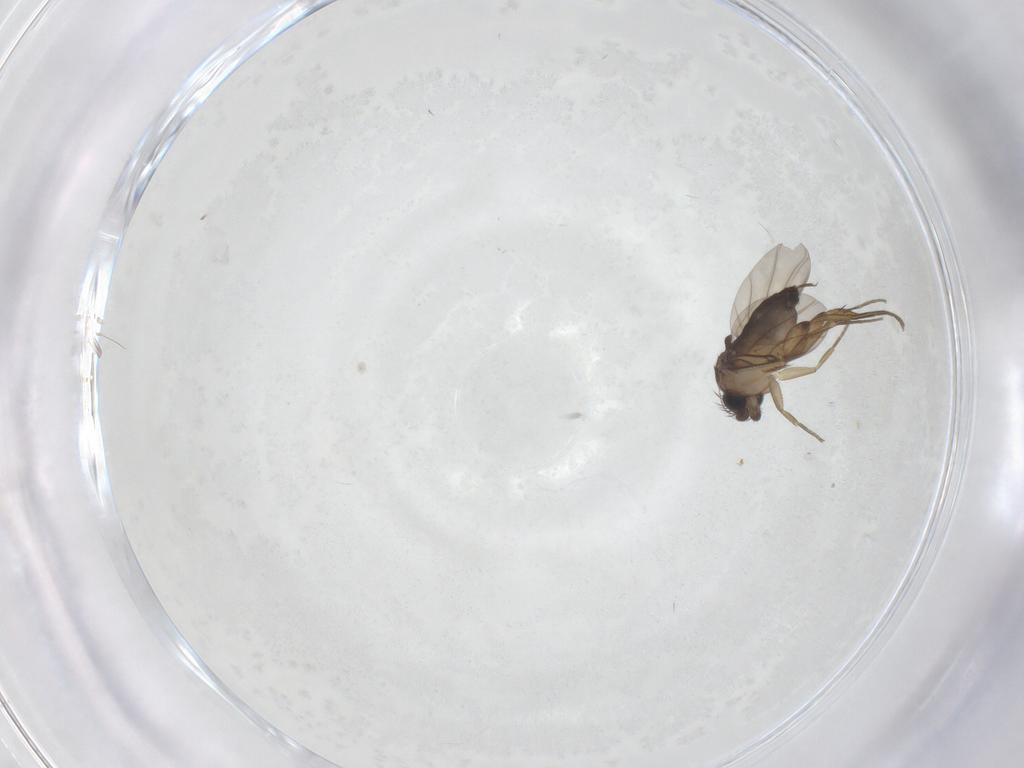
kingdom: Animalia
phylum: Arthropoda
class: Insecta
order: Diptera
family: Phoridae
